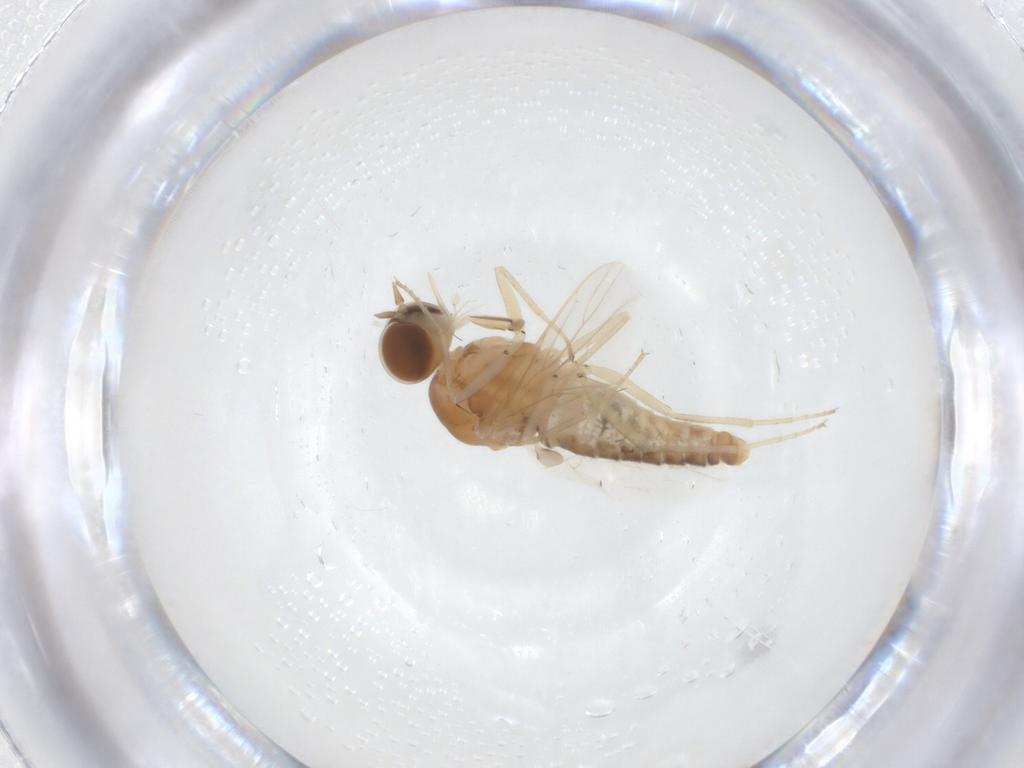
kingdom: Animalia
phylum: Arthropoda
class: Insecta
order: Diptera
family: Empididae
